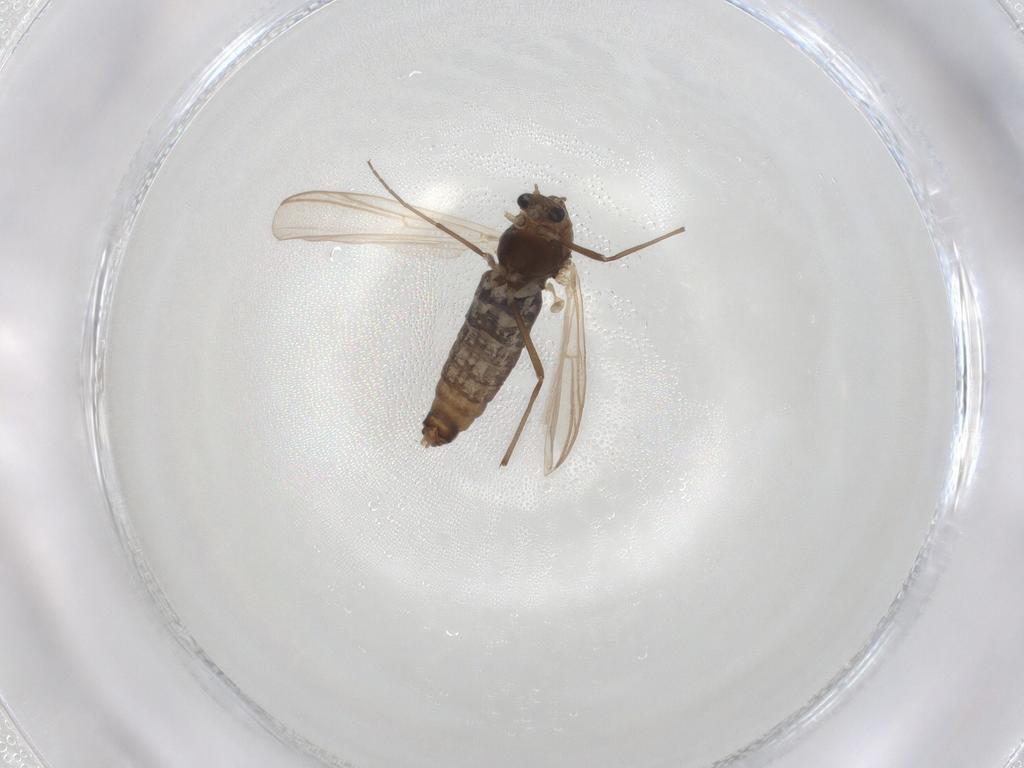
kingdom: Animalia
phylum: Arthropoda
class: Insecta
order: Diptera
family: Chironomidae
